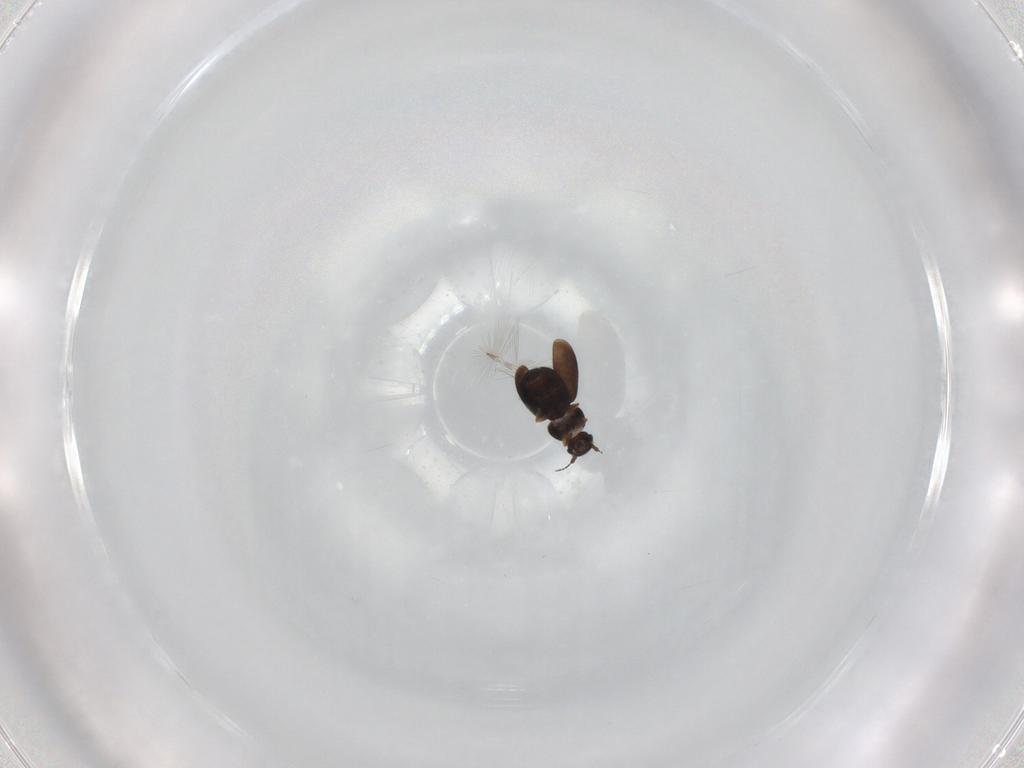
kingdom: Animalia
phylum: Arthropoda
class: Insecta
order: Coleoptera
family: Ptiliidae
